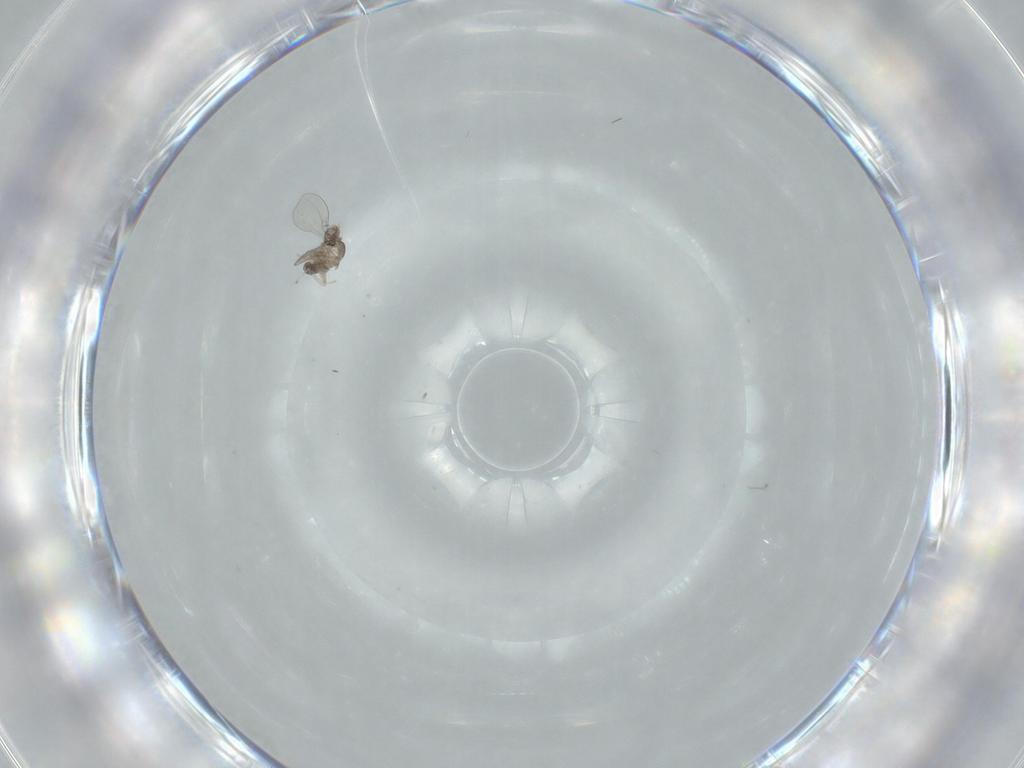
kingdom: Animalia
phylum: Arthropoda
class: Insecta
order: Diptera
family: Cecidomyiidae
